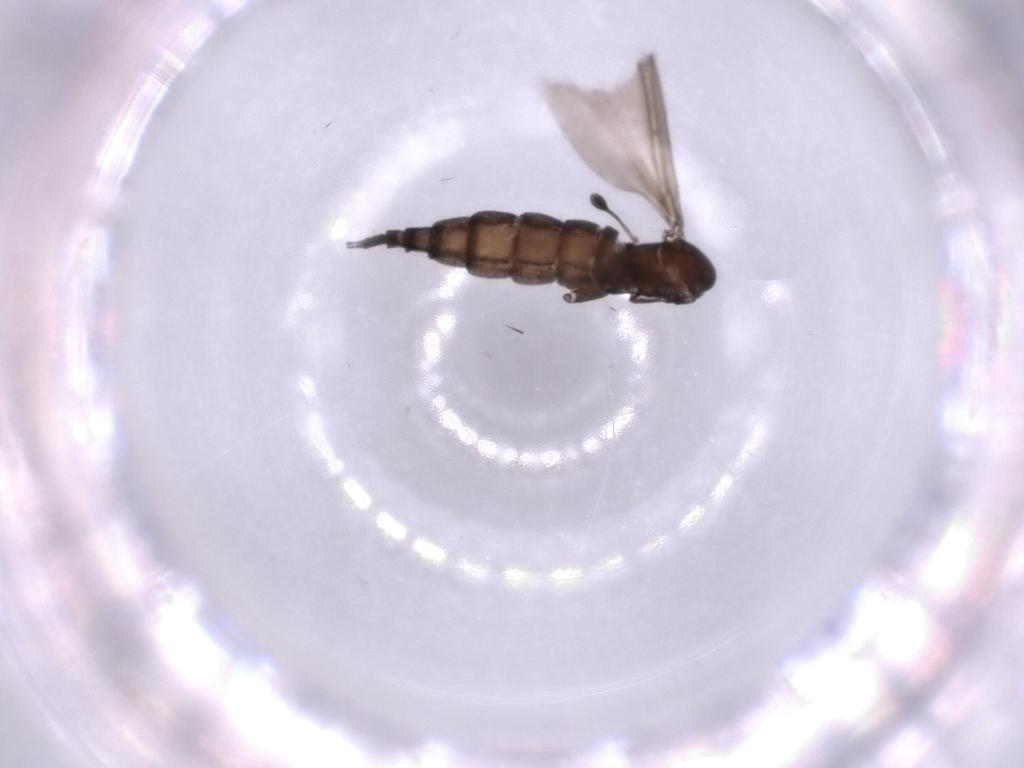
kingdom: Animalia
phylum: Arthropoda
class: Insecta
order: Diptera
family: Sciaridae
